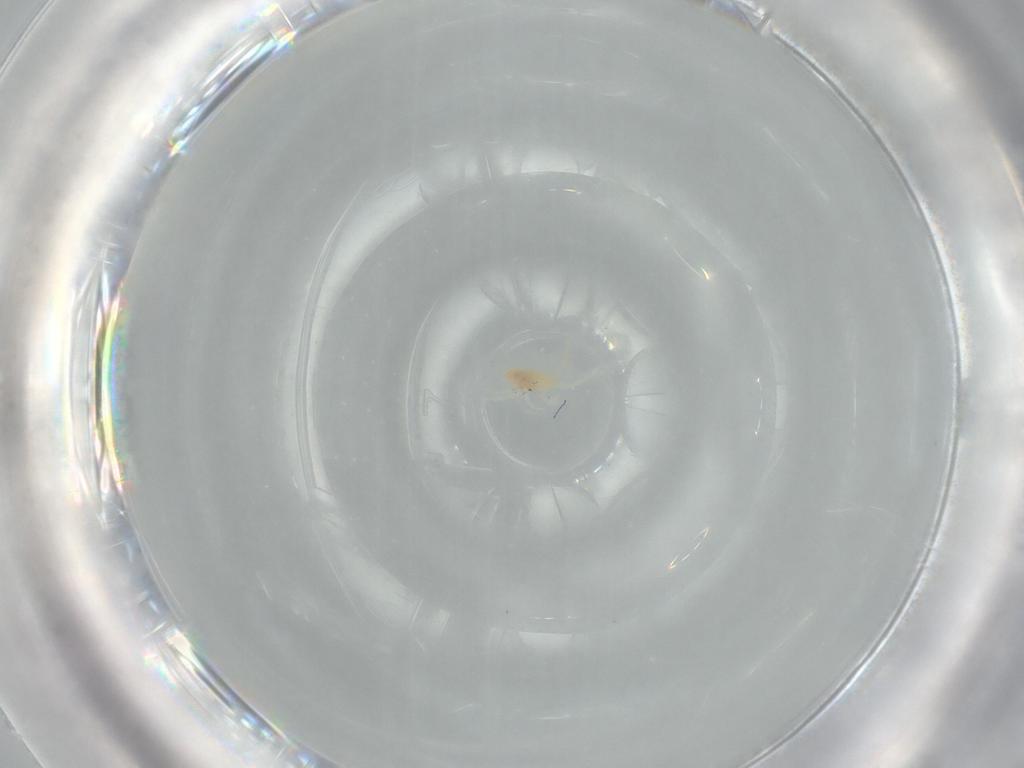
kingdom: Animalia
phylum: Arthropoda
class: Arachnida
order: Trombidiformes
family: Rhagidiidae
